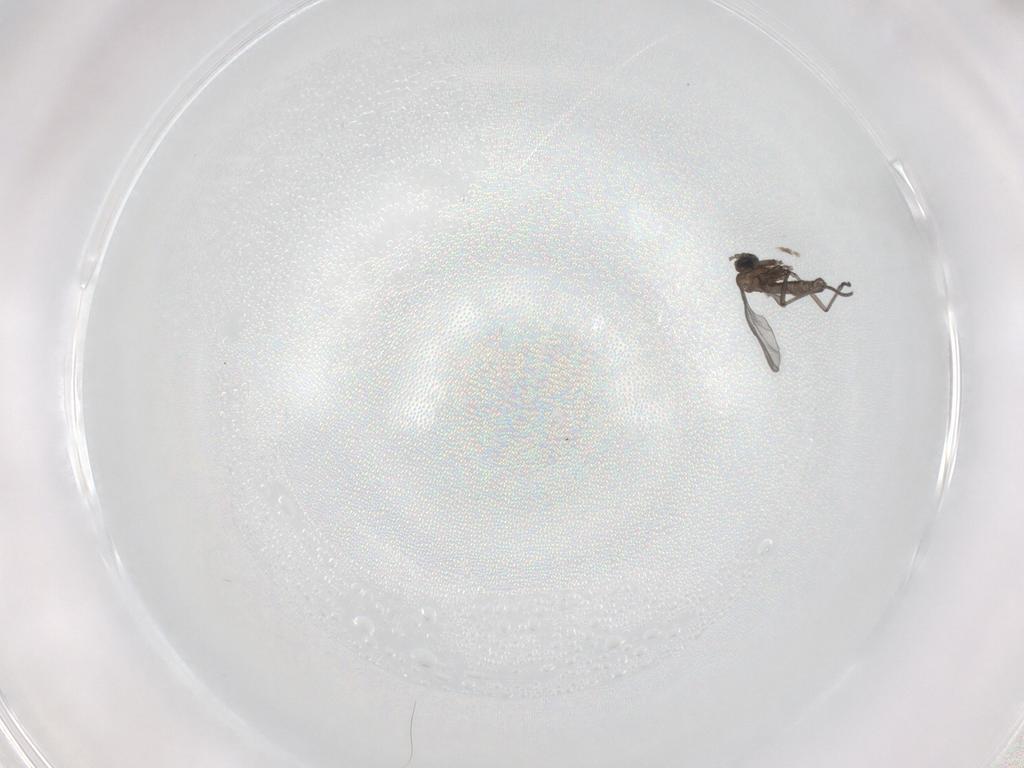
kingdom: Animalia
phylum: Arthropoda
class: Insecta
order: Diptera
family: Sciaridae
